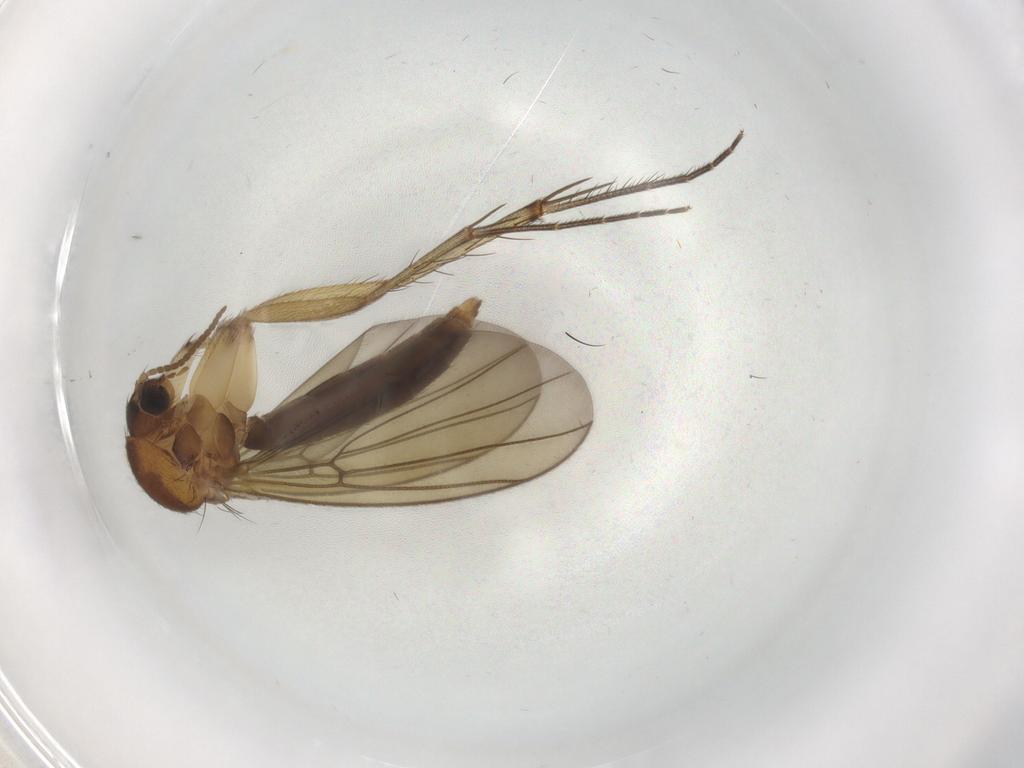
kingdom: Animalia
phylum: Arthropoda
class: Insecta
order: Diptera
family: Mycetophilidae
